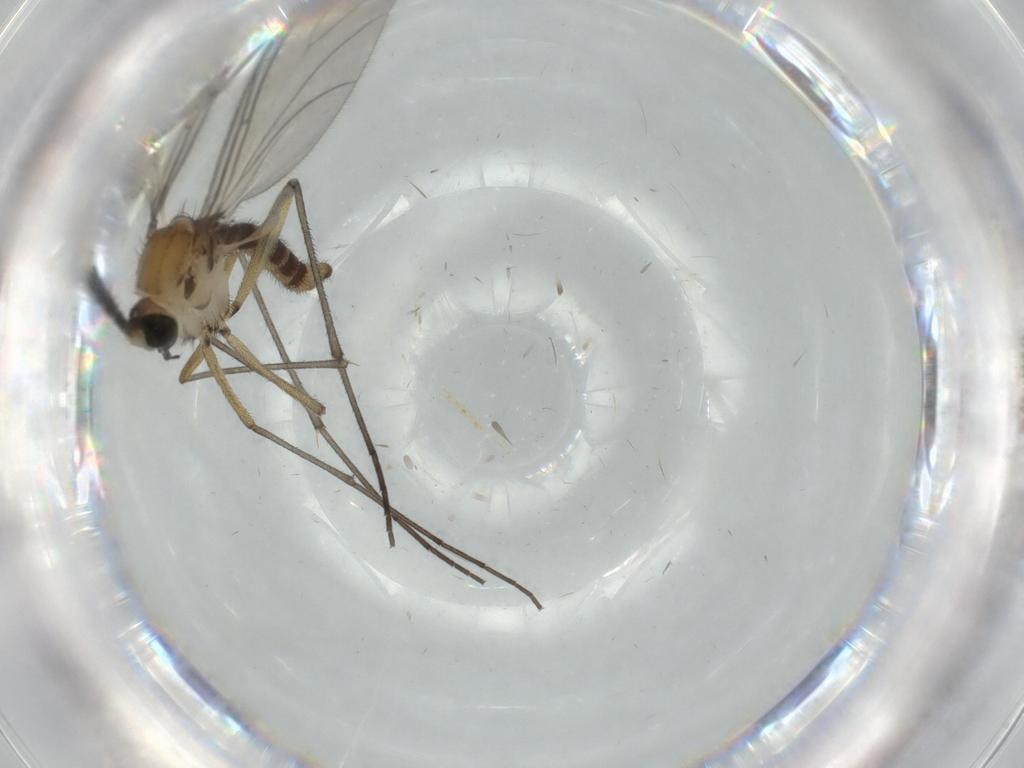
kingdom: Animalia
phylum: Arthropoda
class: Insecta
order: Diptera
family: Sciaridae
